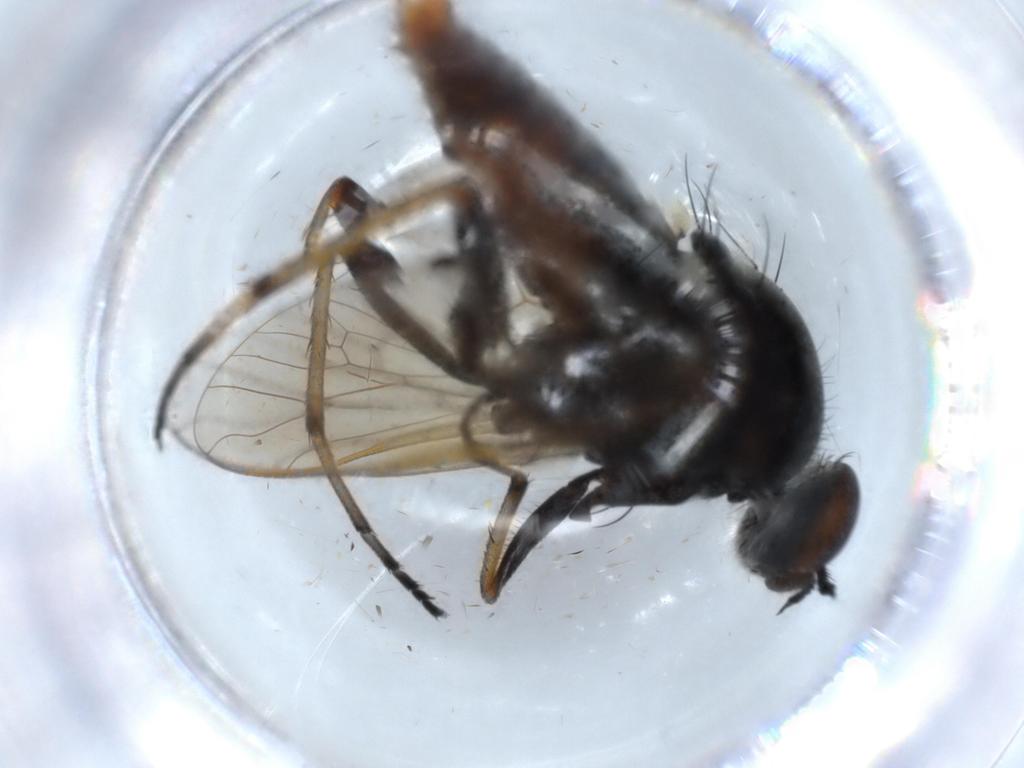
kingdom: Animalia
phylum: Arthropoda
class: Insecta
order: Diptera
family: Therevidae
